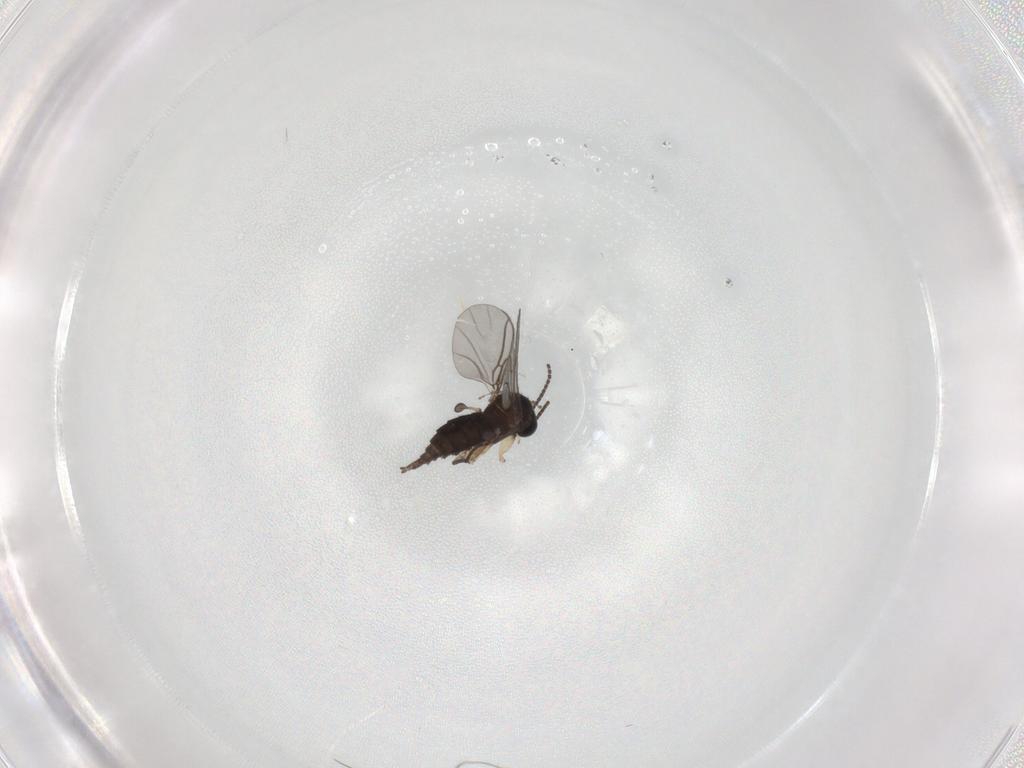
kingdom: Animalia
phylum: Arthropoda
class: Insecta
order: Diptera
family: Sciaridae
